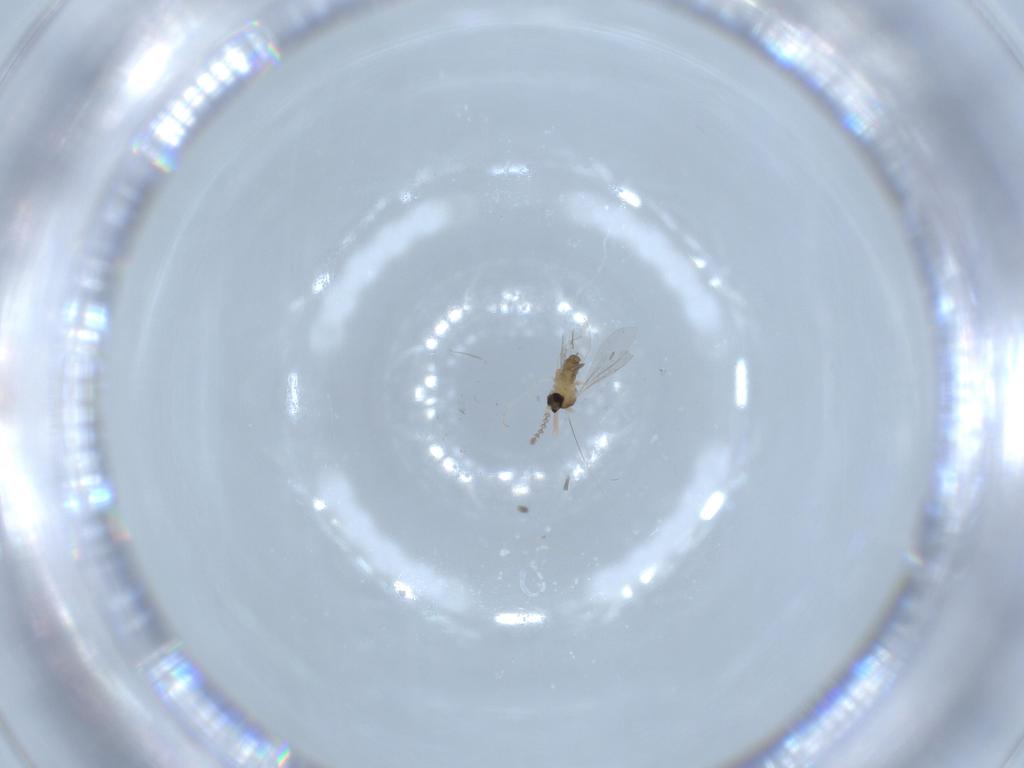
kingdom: Animalia
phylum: Arthropoda
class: Insecta
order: Diptera
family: Cecidomyiidae
